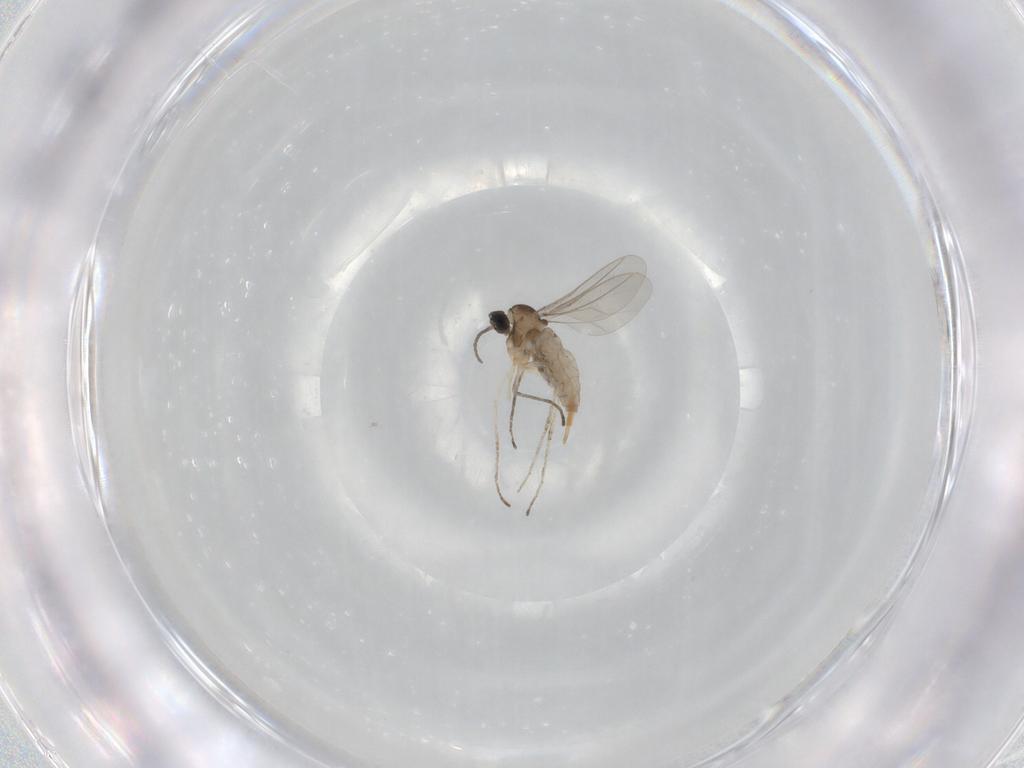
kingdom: Animalia
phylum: Arthropoda
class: Insecta
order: Diptera
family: Cecidomyiidae
